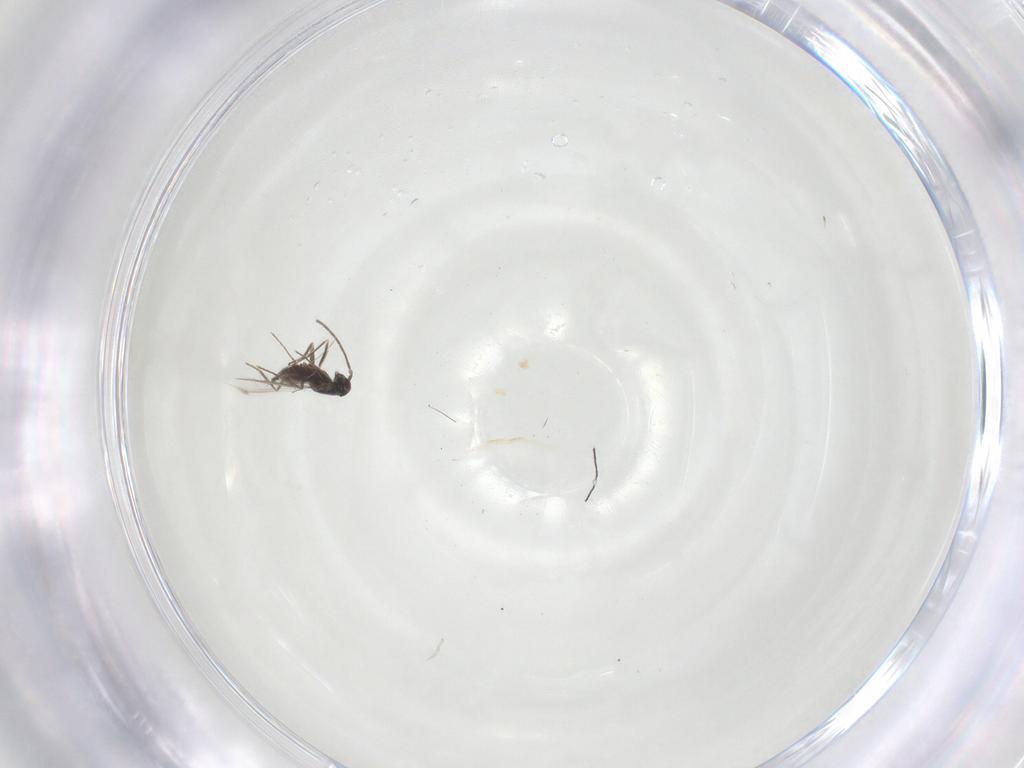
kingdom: Animalia
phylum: Arthropoda
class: Insecta
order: Hymenoptera
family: Mymaridae
